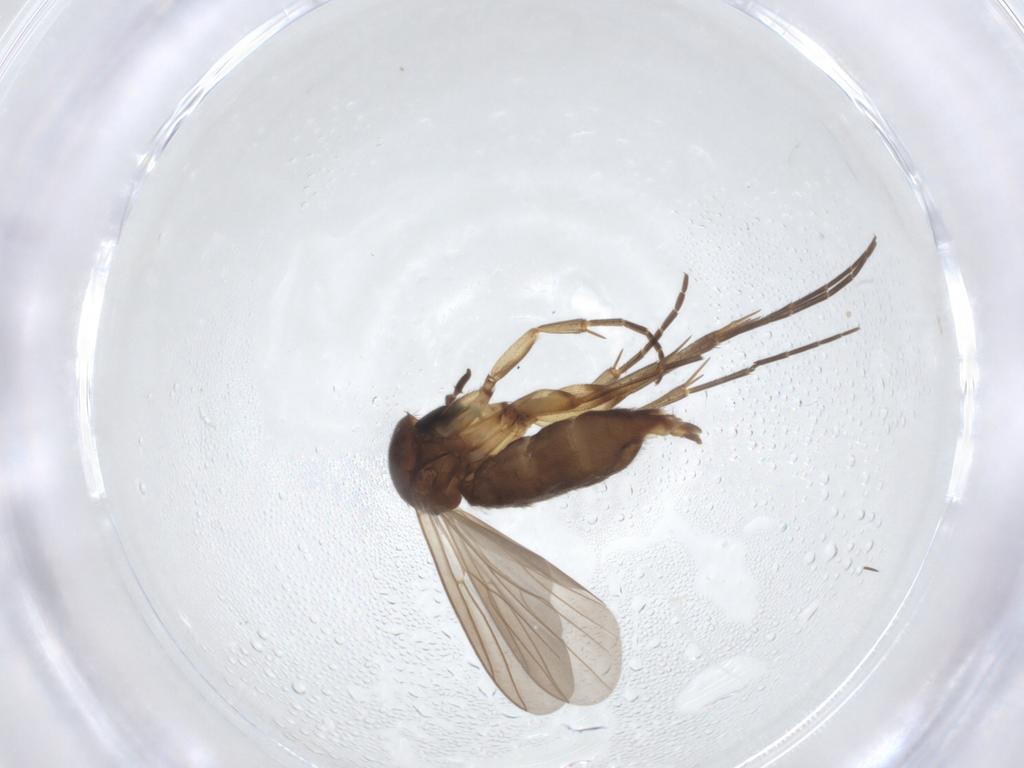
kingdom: Animalia
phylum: Arthropoda
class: Insecta
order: Diptera
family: Mycetophilidae
